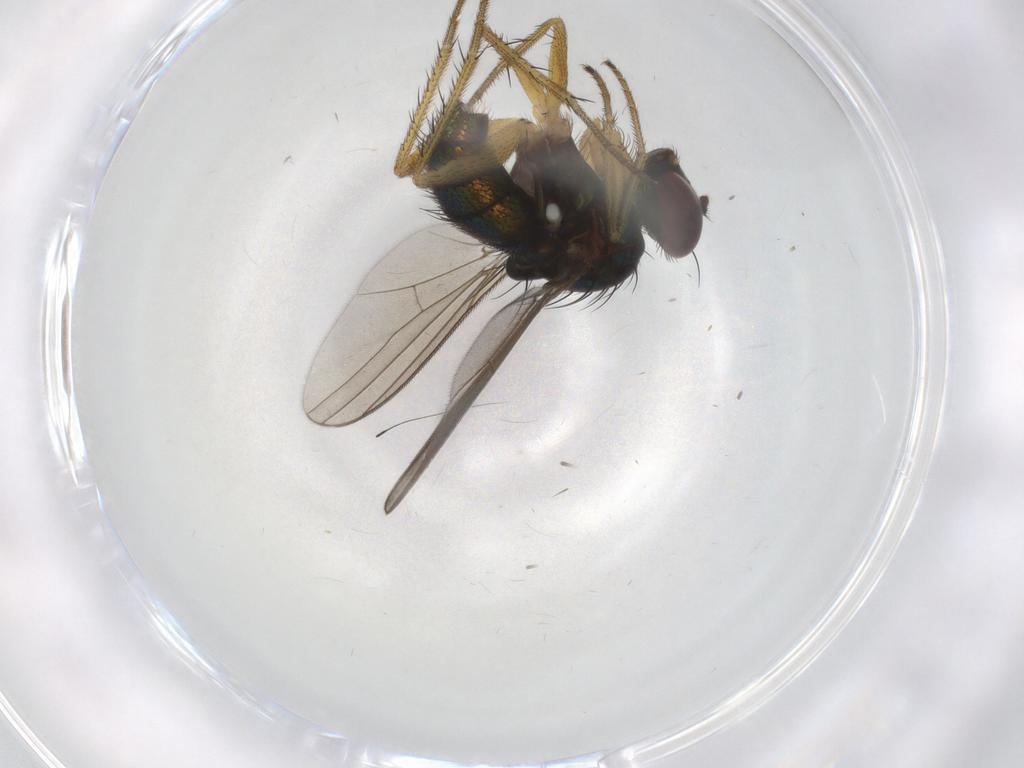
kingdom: Animalia
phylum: Arthropoda
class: Insecta
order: Diptera
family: Dolichopodidae
